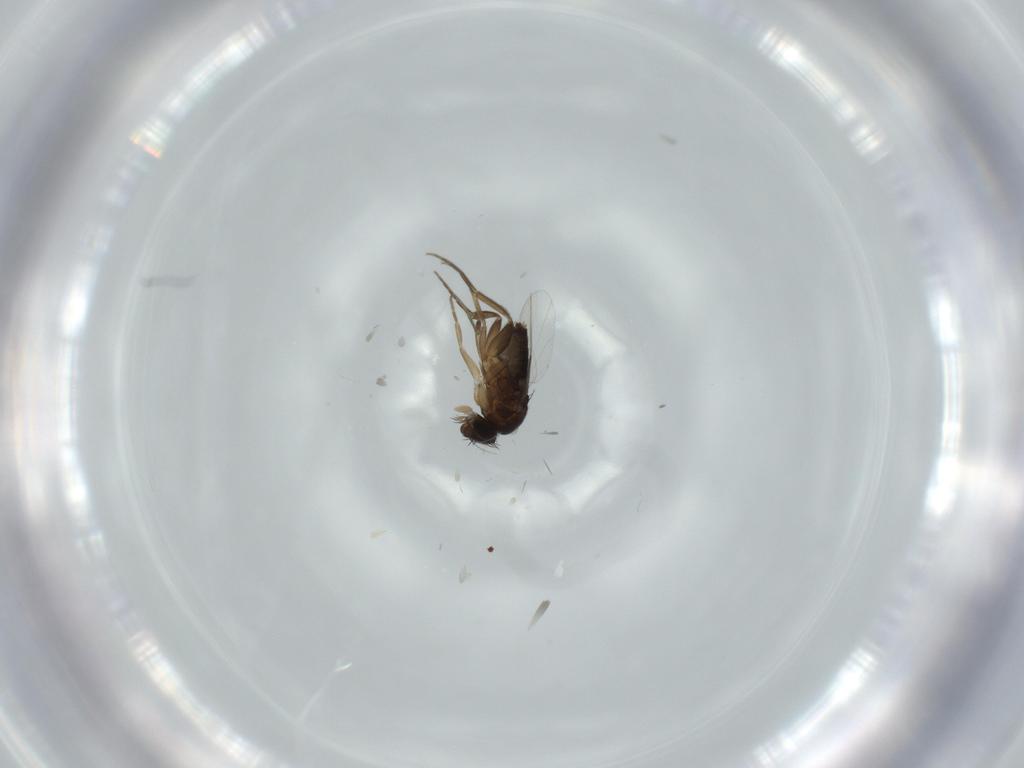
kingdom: Animalia
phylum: Arthropoda
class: Insecta
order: Diptera
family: Phoridae
